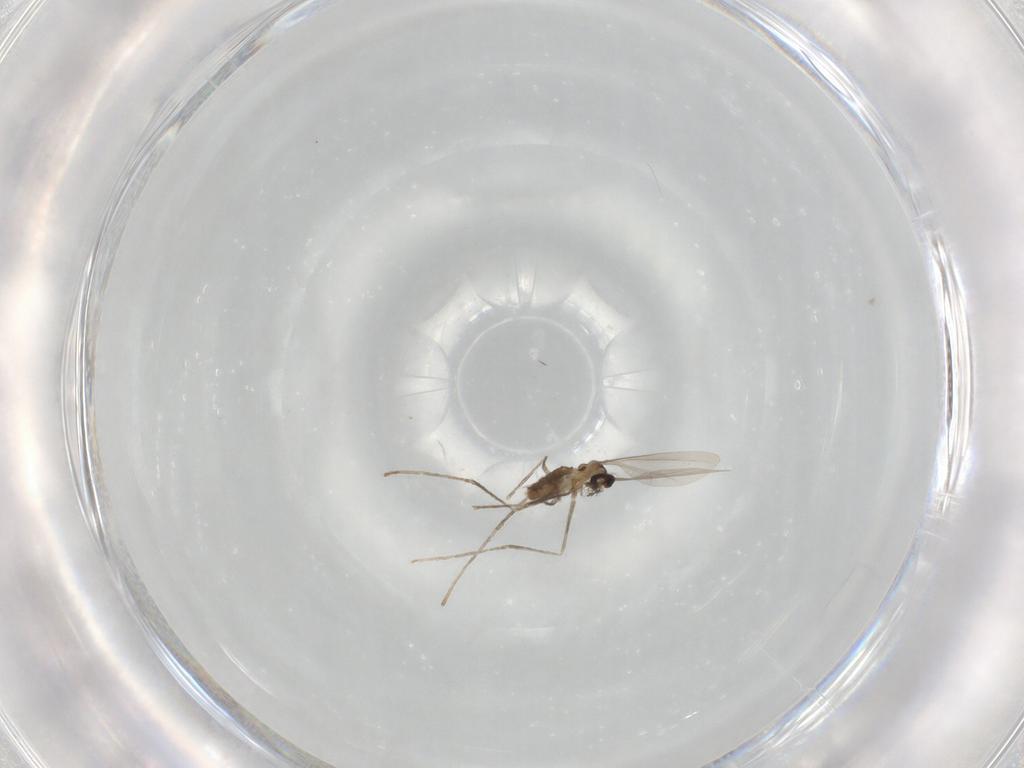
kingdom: Animalia
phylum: Arthropoda
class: Insecta
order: Diptera
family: Cecidomyiidae
